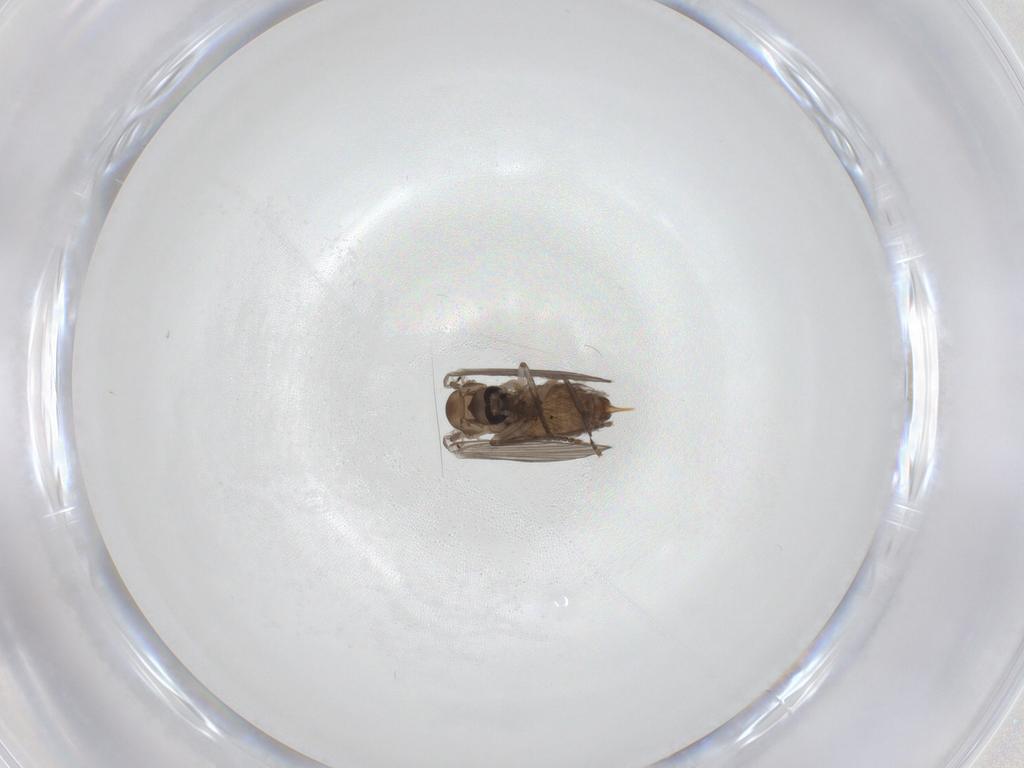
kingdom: Animalia
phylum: Arthropoda
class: Insecta
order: Diptera
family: Psychodidae
